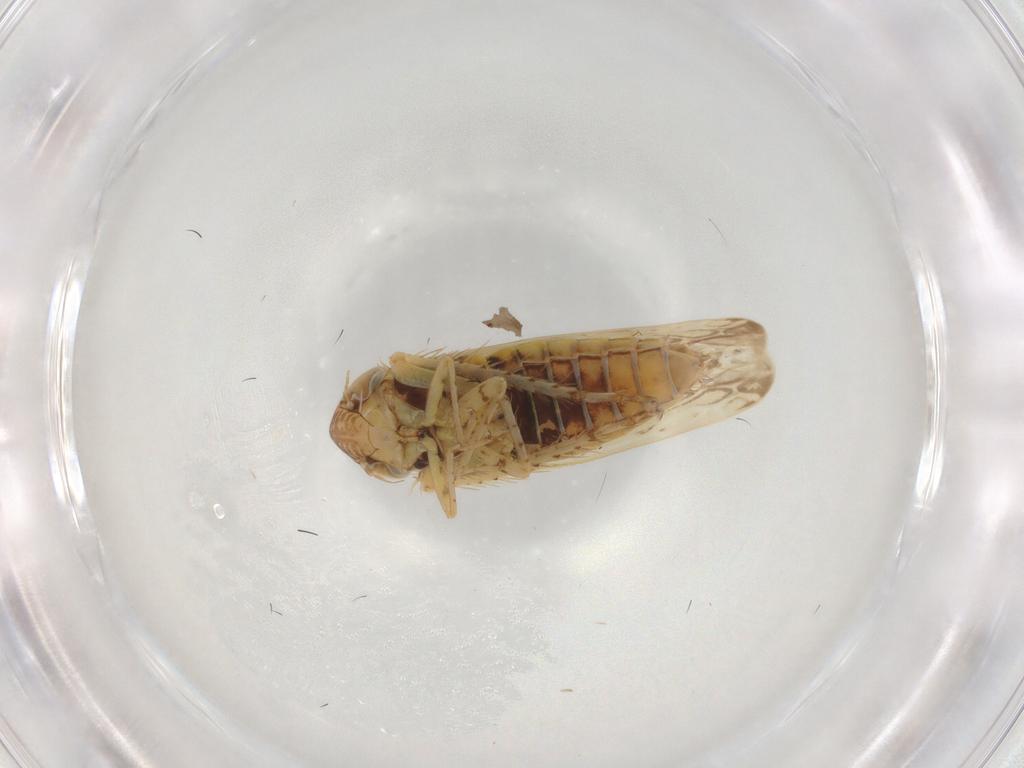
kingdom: Animalia
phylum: Arthropoda
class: Insecta
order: Hemiptera
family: Cicadellidae
